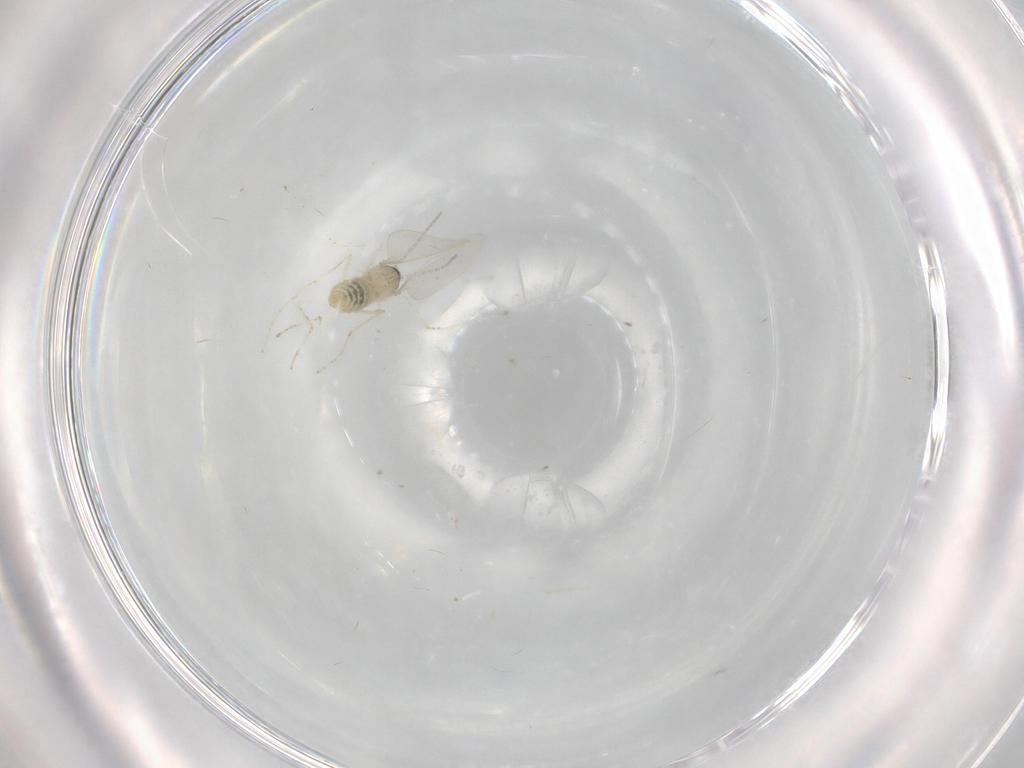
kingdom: Animalia
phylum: Arthropoda
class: Insecta
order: Diptera
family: Cecidomyiidae
